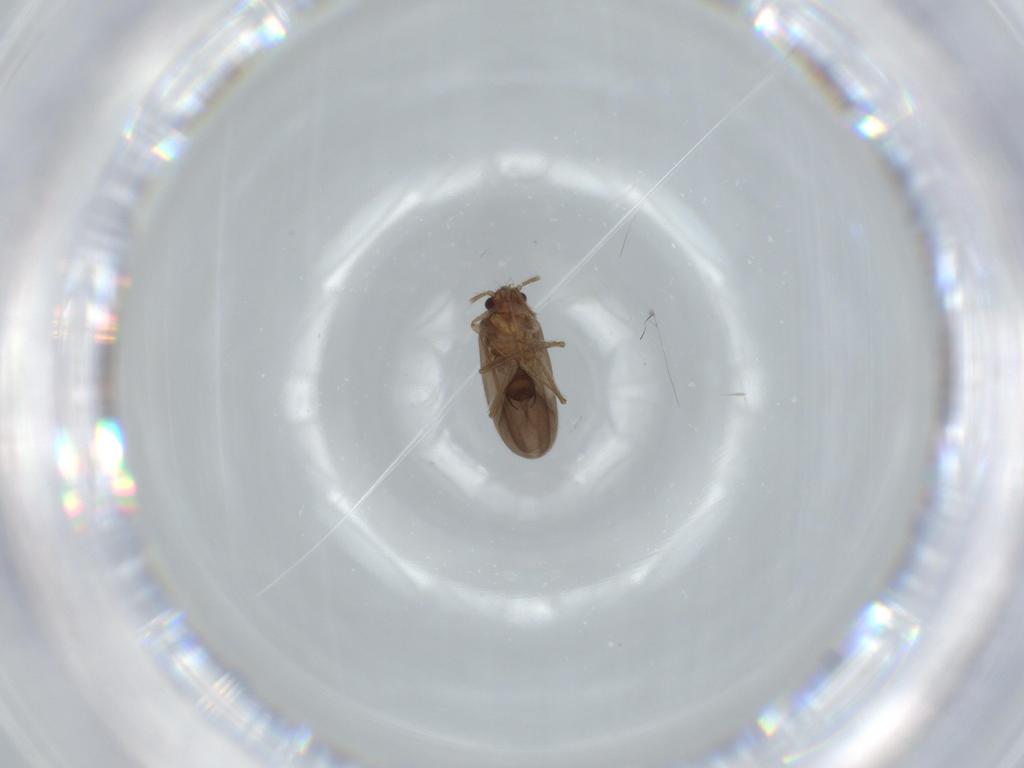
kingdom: Animalia
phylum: Arthropoda
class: Insecta
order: Hemiptera
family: Ceratocombidae
